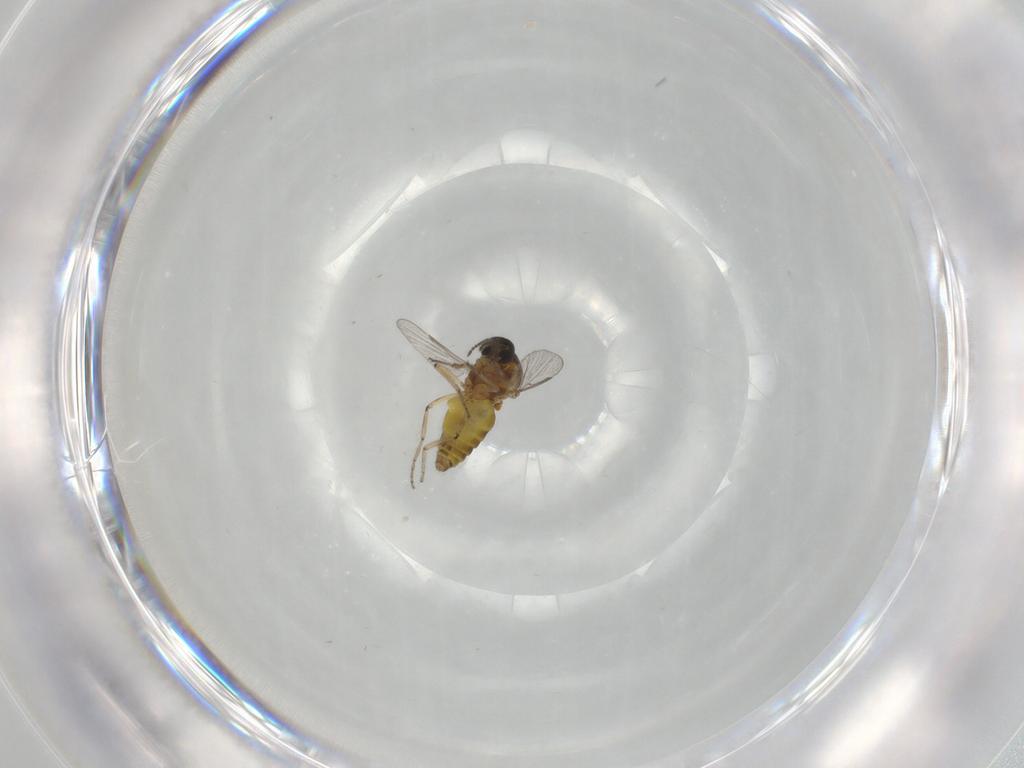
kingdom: Animalia
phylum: Arthropoda
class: Insecta
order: Diptera
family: Ceratopogonidae
